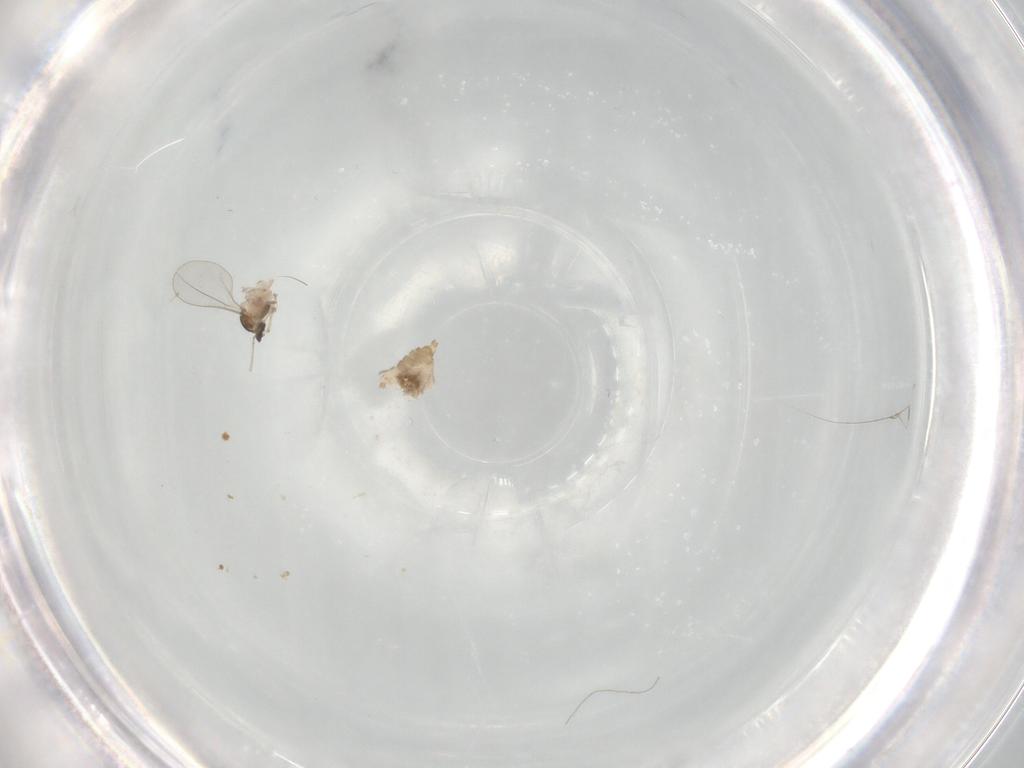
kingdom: Animalia
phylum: Arthropoda
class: Insecta
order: Diptera
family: Cecidomyiidae
